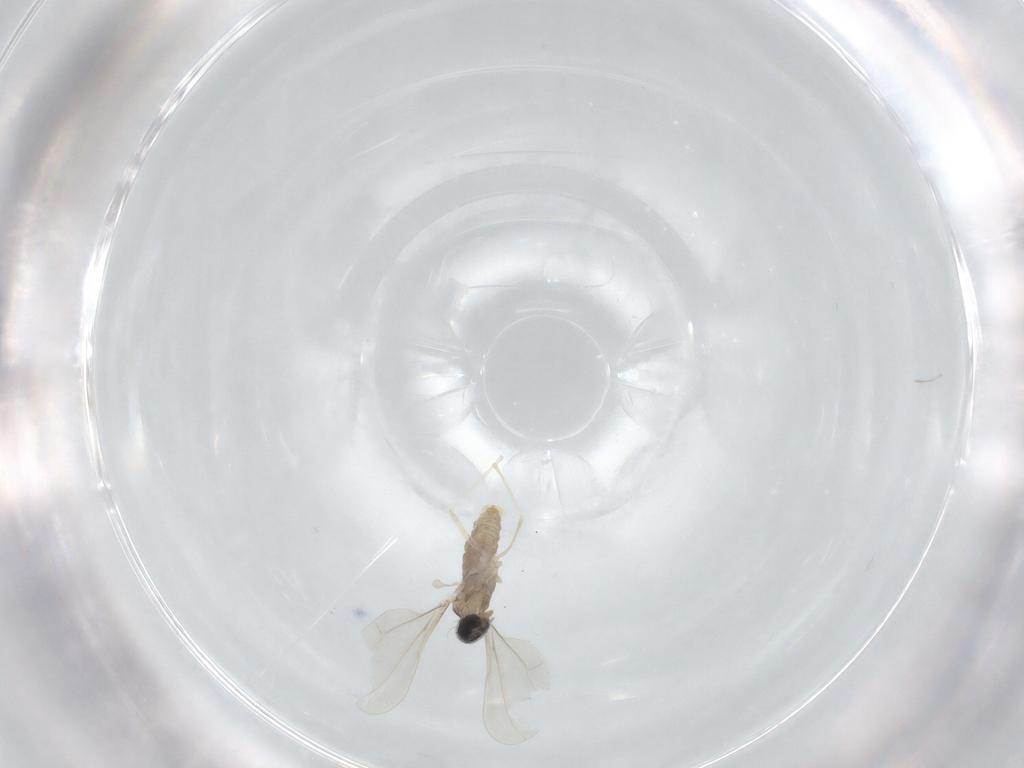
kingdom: Animalia
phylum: Arthropoda
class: Insecta
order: Diptera
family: Cecidomyiidae
